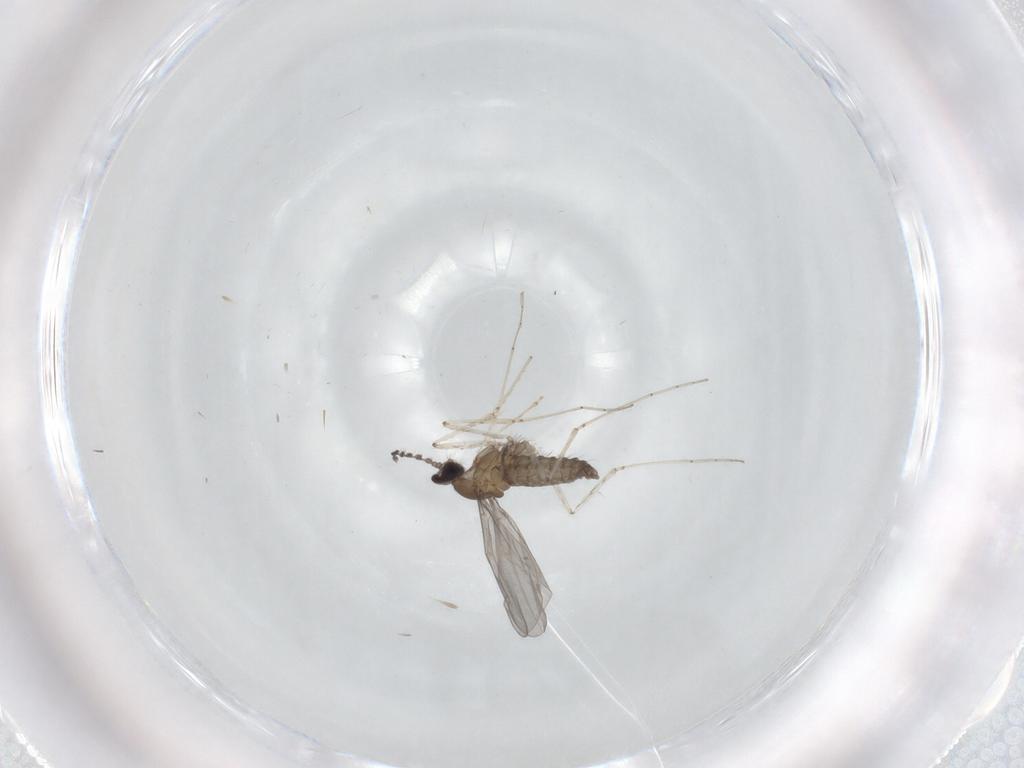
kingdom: Animalia
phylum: Arthropoda
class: Insecta
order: Diptera
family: Cecidomyiidae
